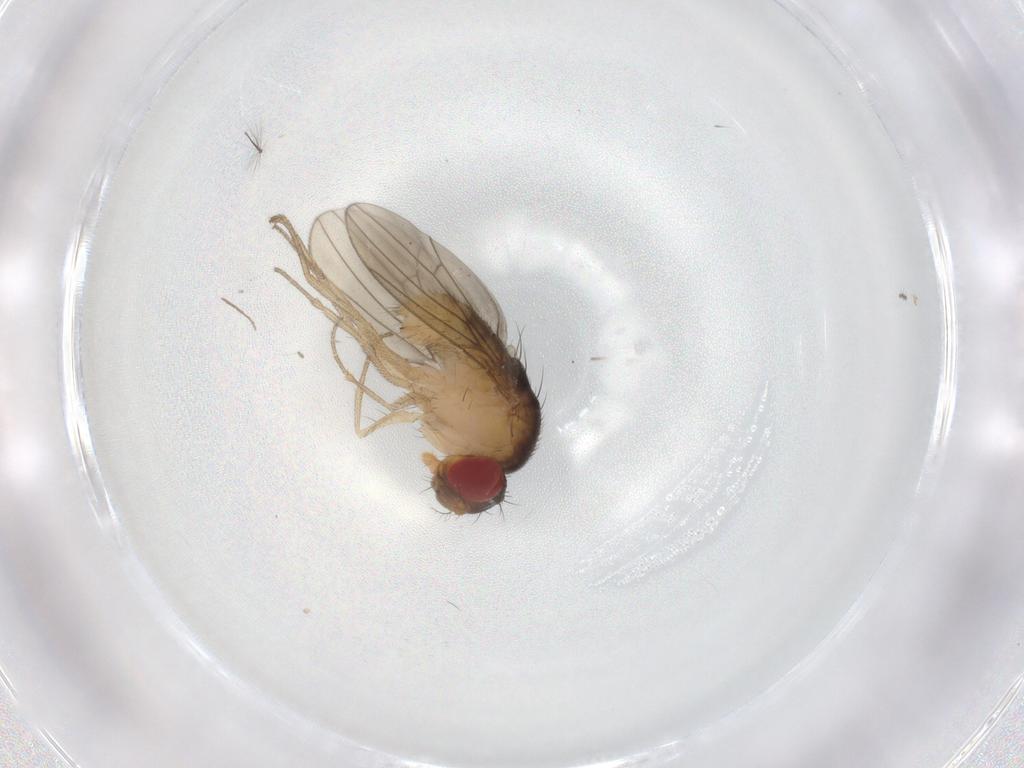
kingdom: Animalia
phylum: Arthropoda
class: Insecta
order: Diptera
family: Drosophilidae
